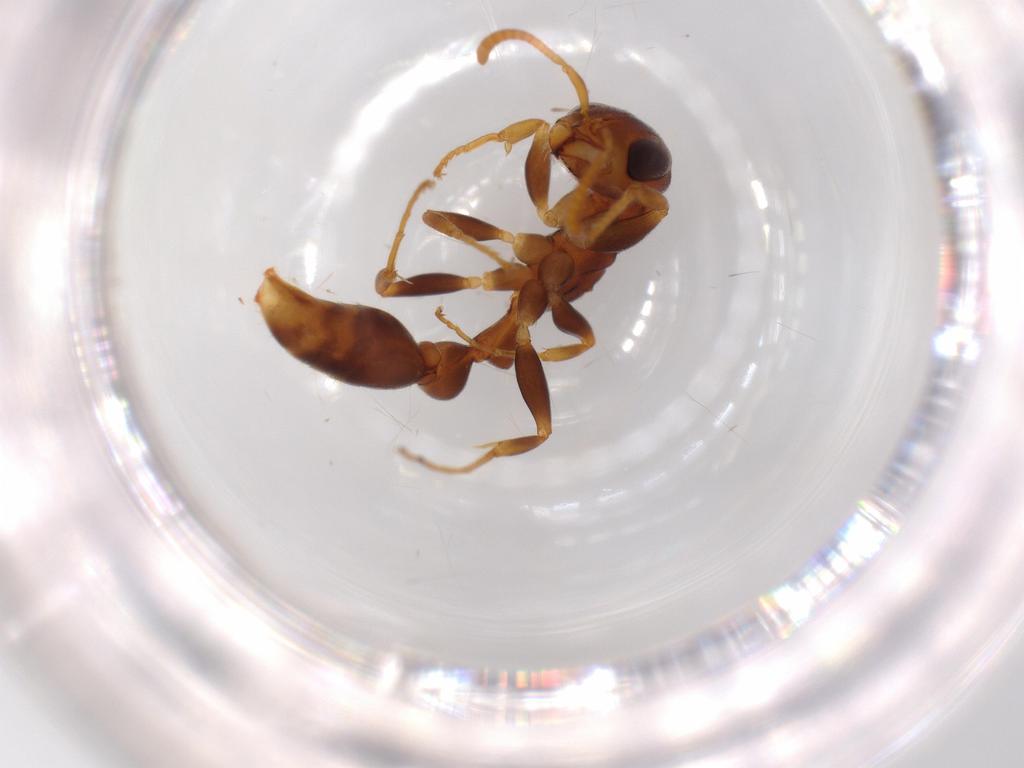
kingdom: Animalia
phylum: Arthropoda
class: Insecta
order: Hymenoptera
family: Formicidae
